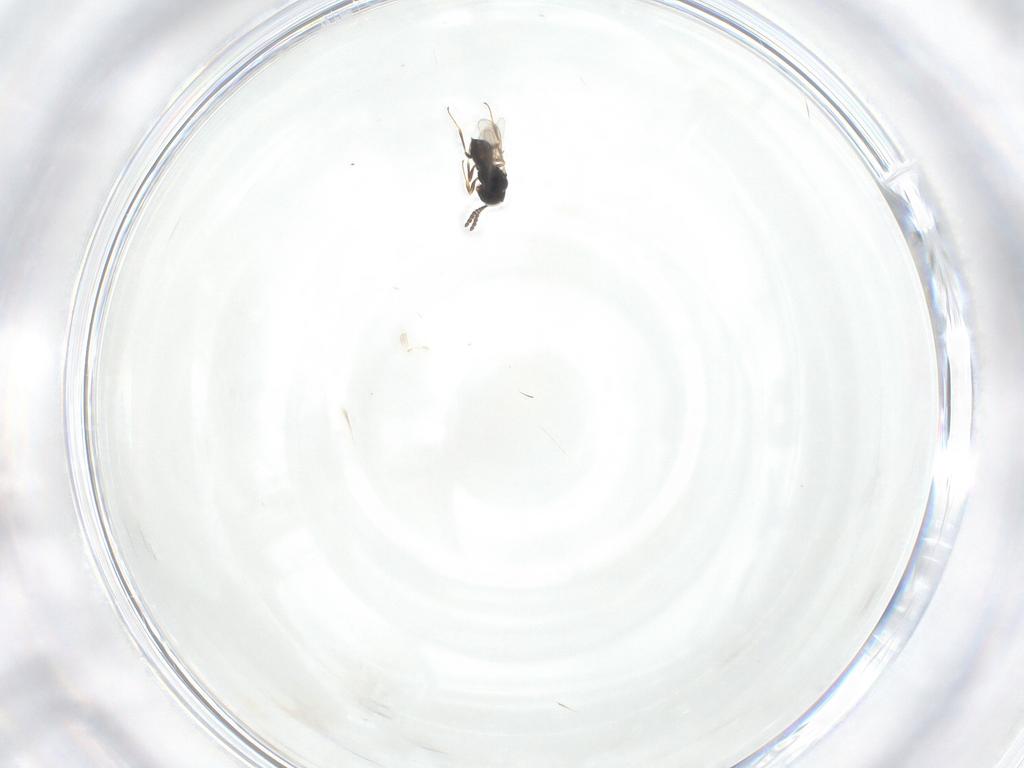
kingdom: Animalia
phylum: Arthropoda
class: Insecta
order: Hymenoptera
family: Scelionidae
